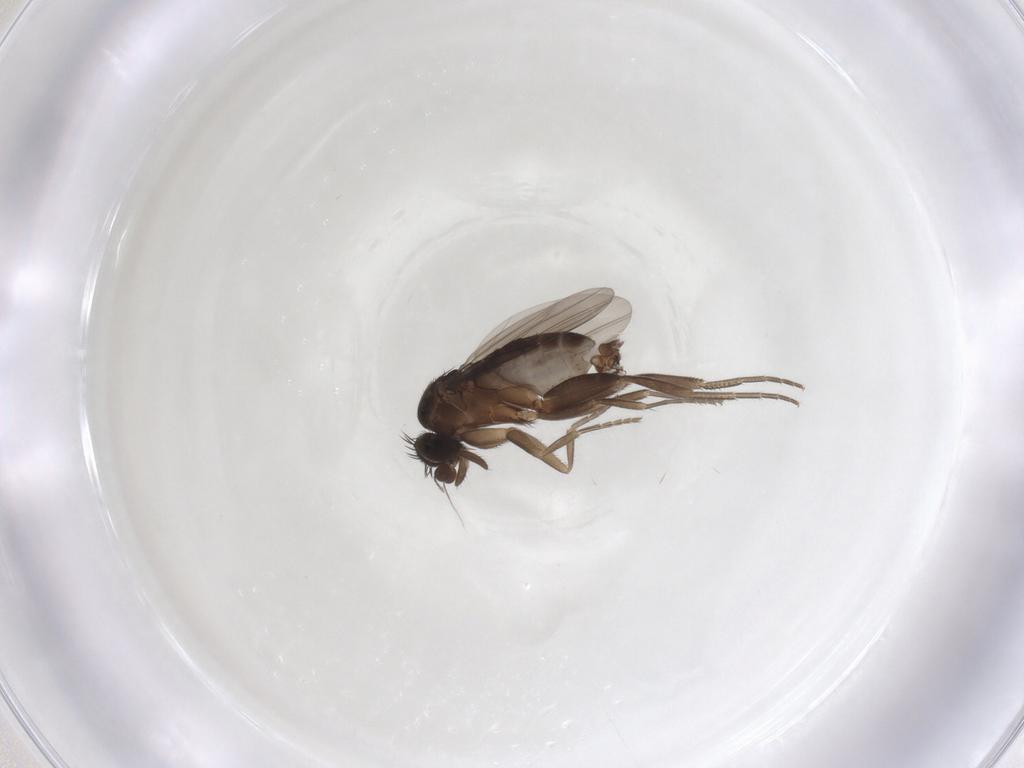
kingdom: Animalia
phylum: Arthropoda
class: Insecta
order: Diptera
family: Phoridae
